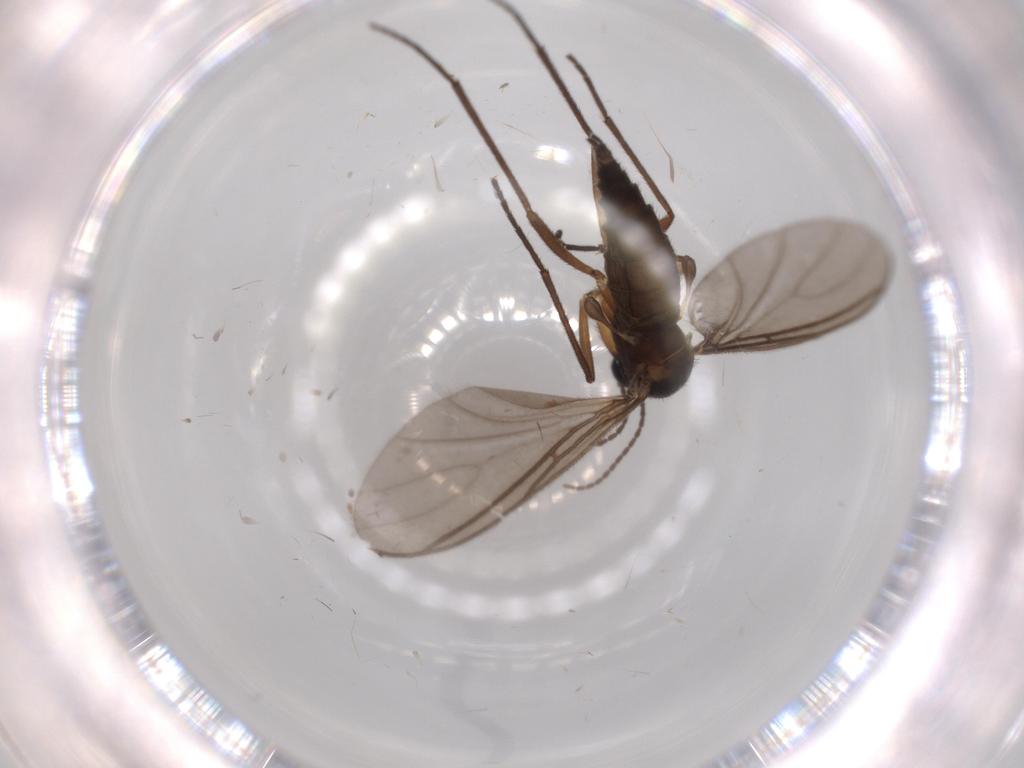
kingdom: Animalia
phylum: Arthropoda
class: Insecta
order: Diptera
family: Sciaridae
